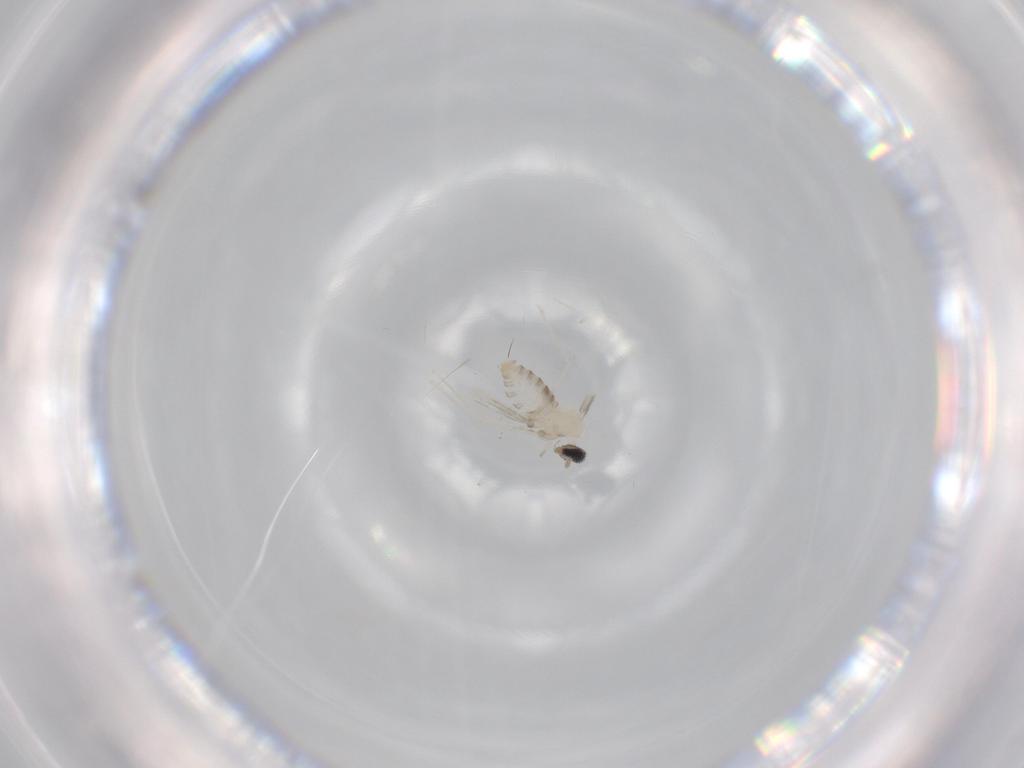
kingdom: Animalia
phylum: Arthropoda
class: Insecta
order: Diptera
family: Cecidomyiidae
